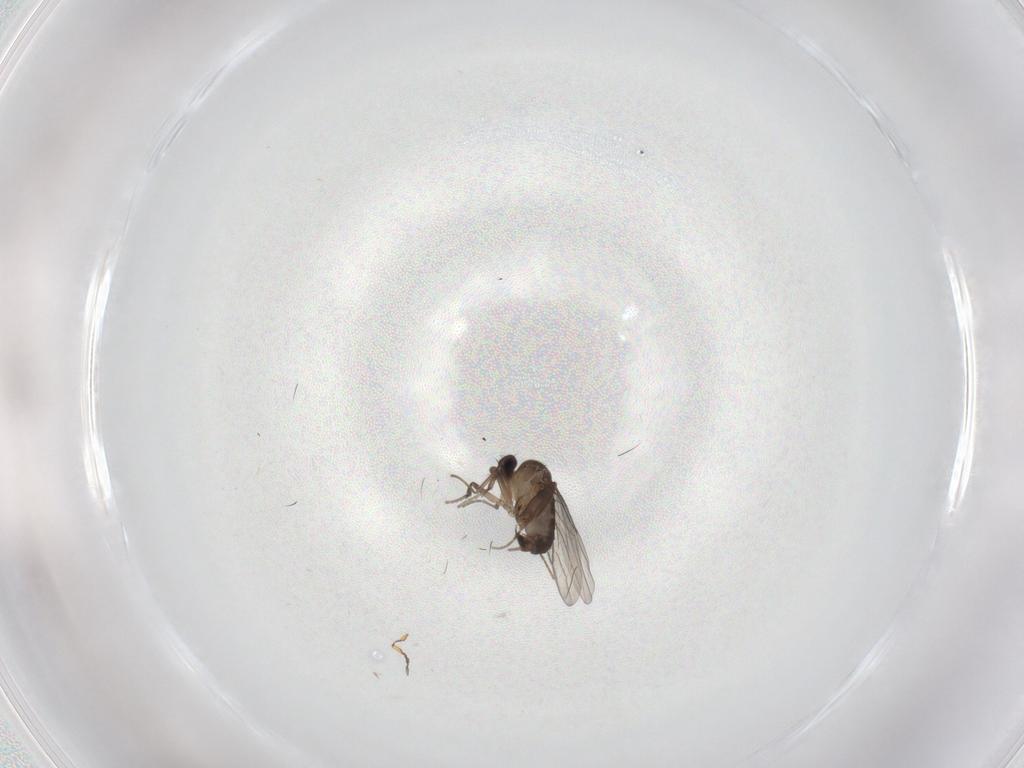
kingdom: Animalia
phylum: Arthropoda
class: Insecta
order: Diptera
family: Phoridae
